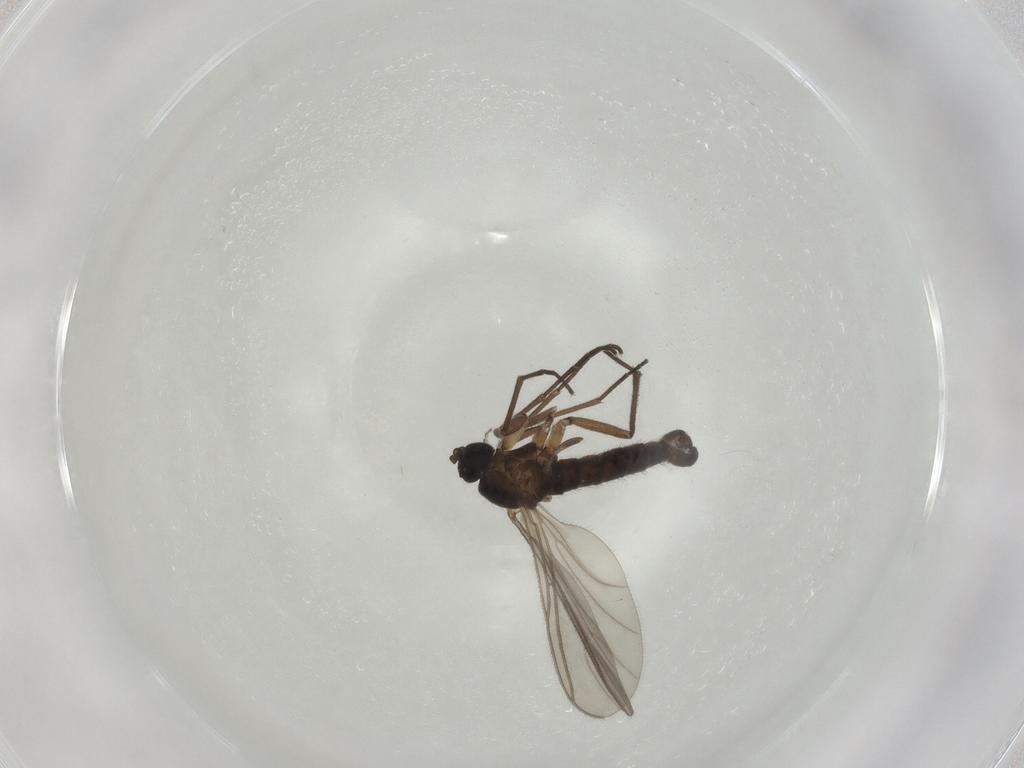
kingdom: Animalia
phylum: Arthropoda
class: Insecta
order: Diptera
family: Sciaridae
